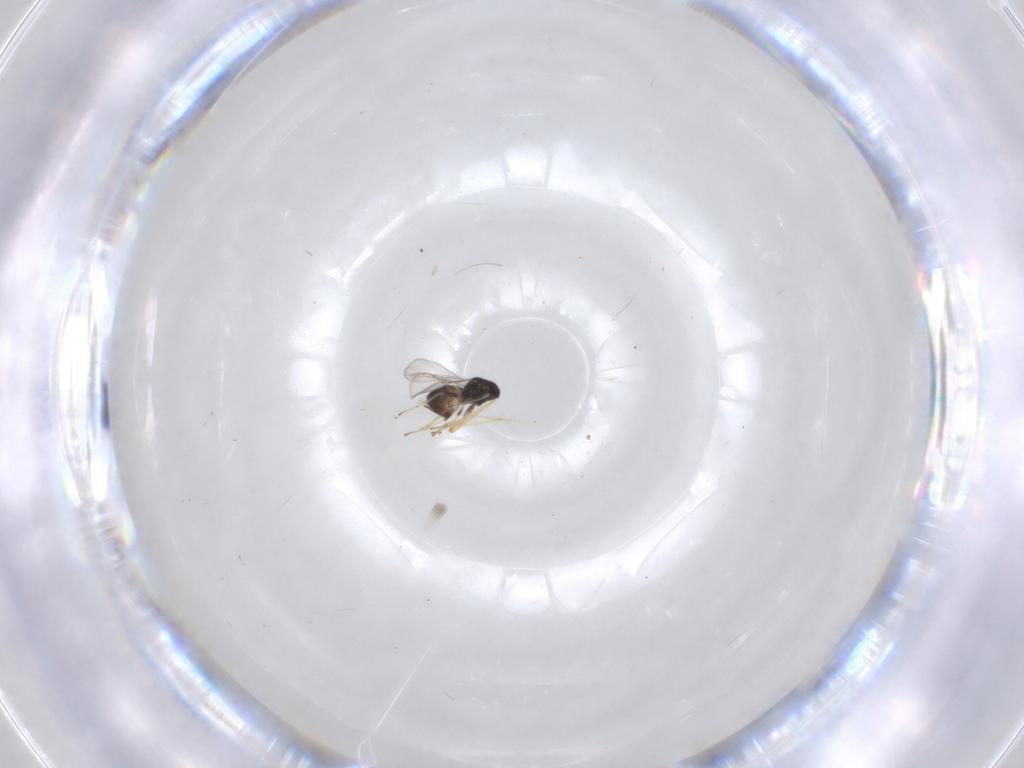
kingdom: Animalia
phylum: Arthropoda
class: Insecta
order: Hymenoptera
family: Eulophidae
